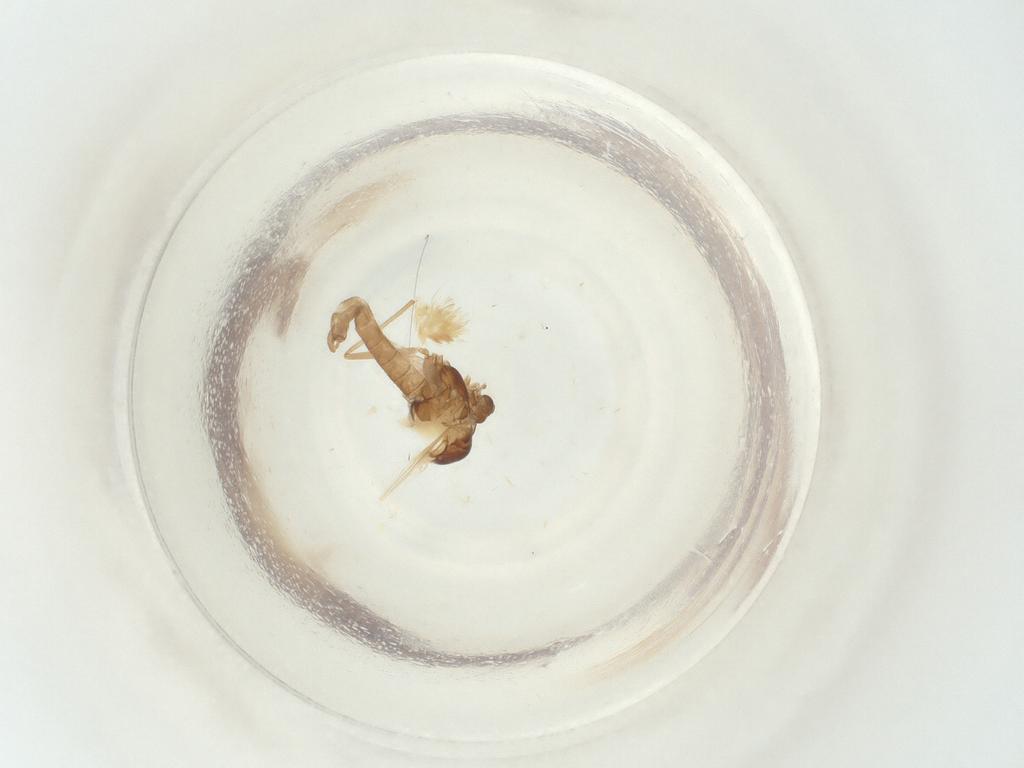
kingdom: Animalia
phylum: Arthropoda
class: Insecta
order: Diptera
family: Chironomidae
